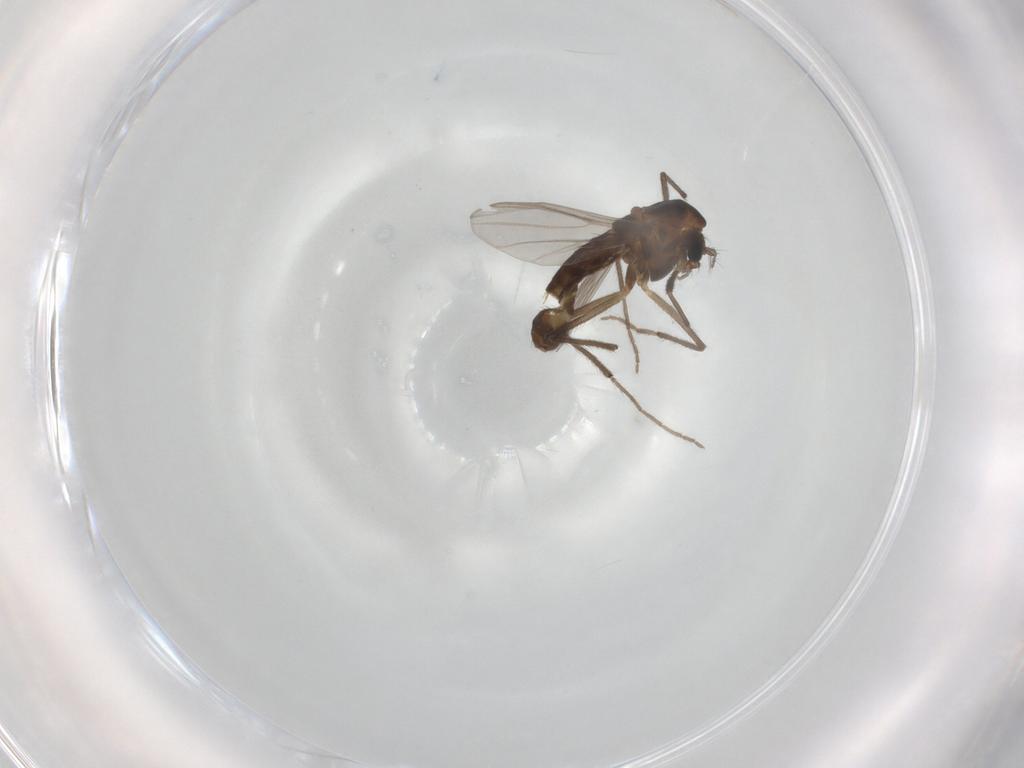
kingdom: Animalia
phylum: Arthropoda
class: Insecta
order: Diptera
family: Chironomidae
